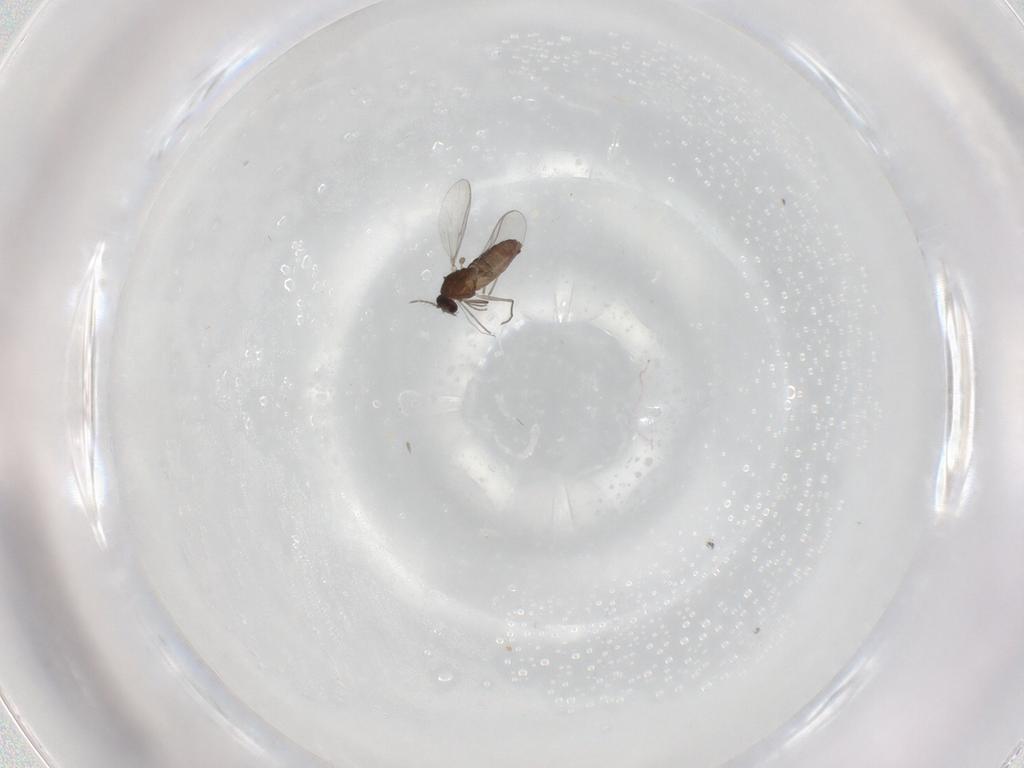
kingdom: Animalia
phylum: Arthropoda
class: Insecta
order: Diptera
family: Chironomidae
